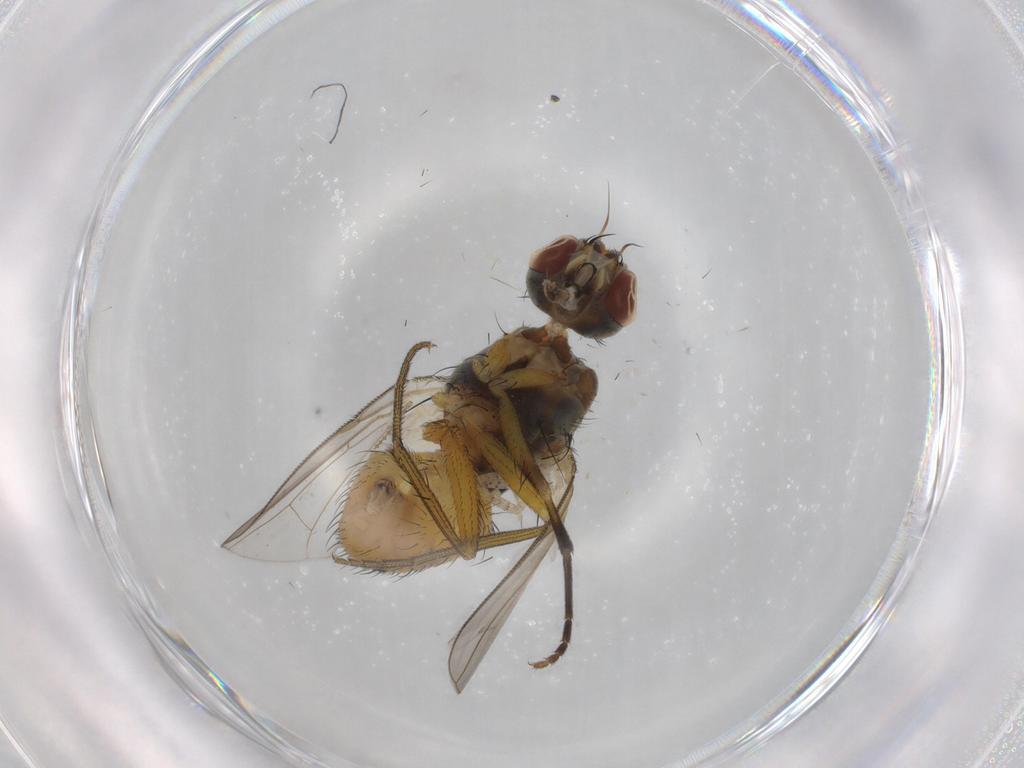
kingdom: Animalia
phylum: Arthropoda
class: Insecta
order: Diptera
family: Muscidae
